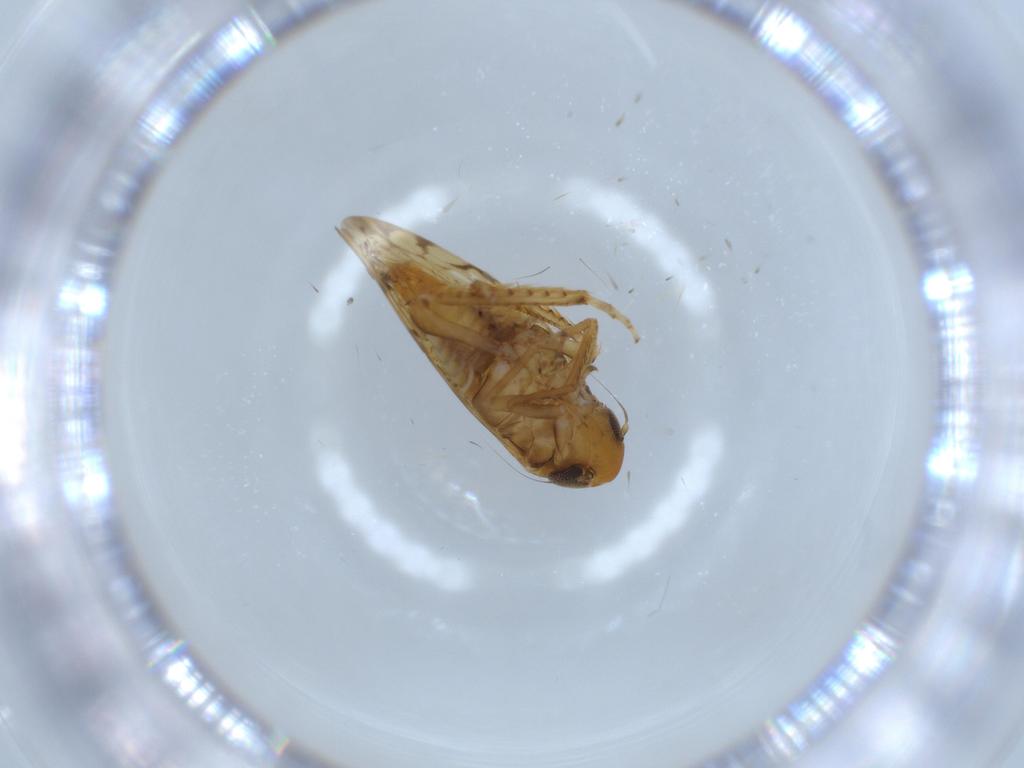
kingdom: Animalia
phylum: Arthropoda
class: Insecta
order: Hemiptera
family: Cicadellidae
